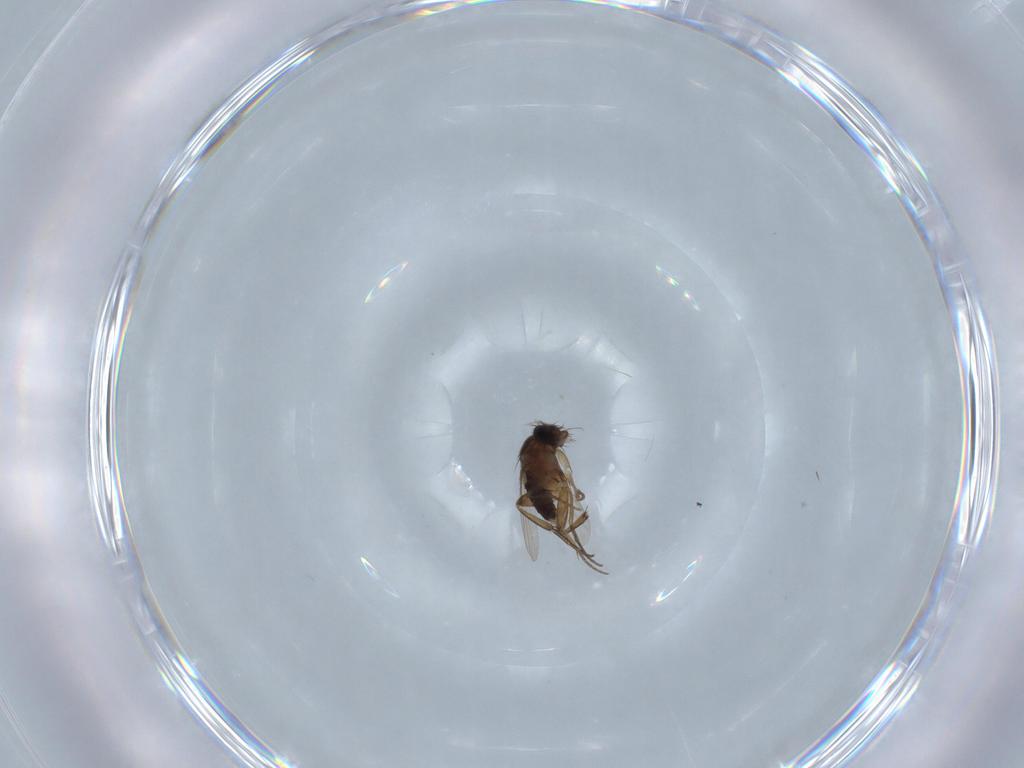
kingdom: Animalia
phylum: Arthropoda
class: Insecta
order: Diptera
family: Phoridae
